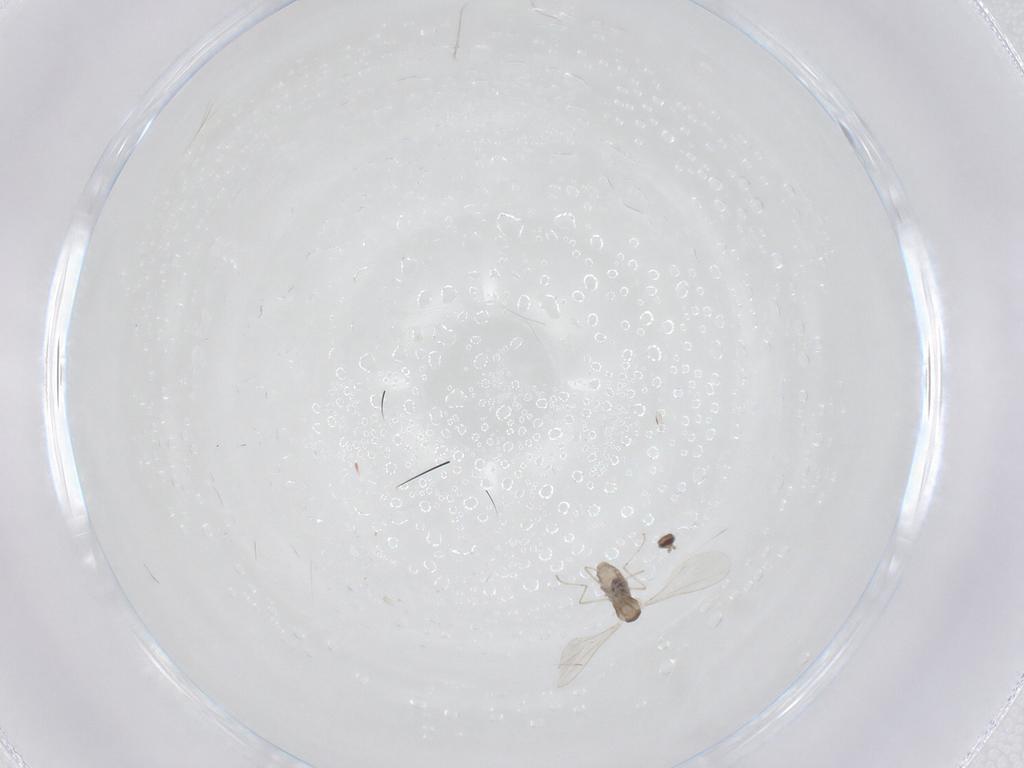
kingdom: Animalia
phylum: Arthropoda
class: Insecta
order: Diptera
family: Cecidomyiidae
